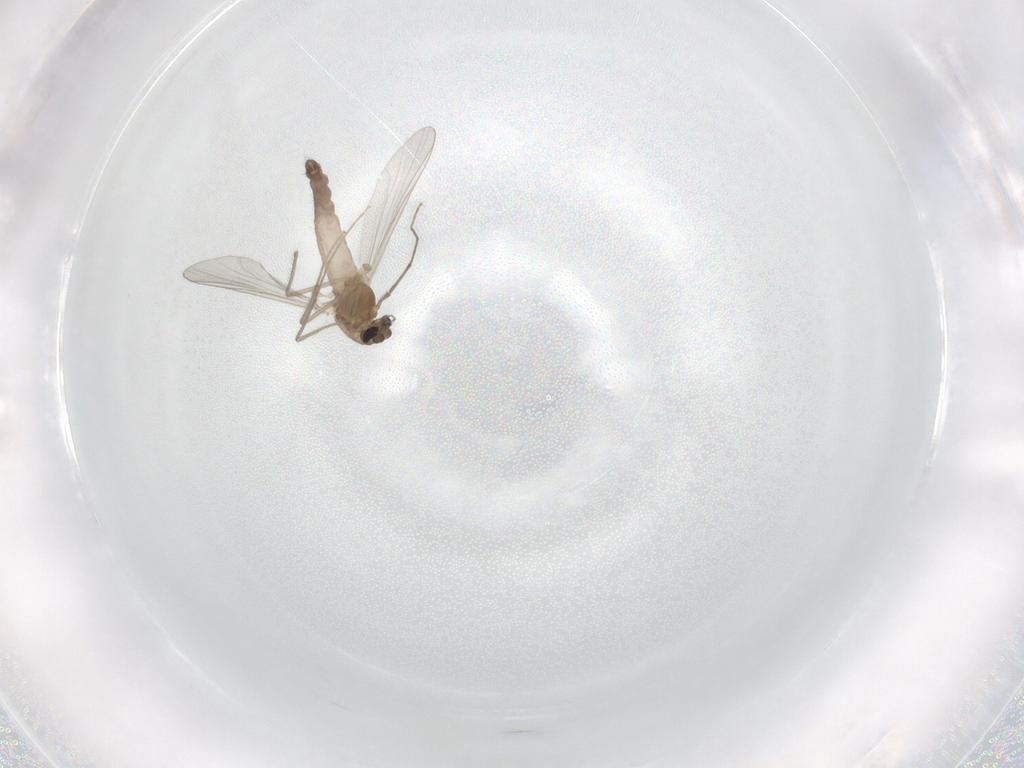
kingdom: Animalia
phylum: Arthropoda
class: Insecta
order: Diptera
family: Chironomidae
